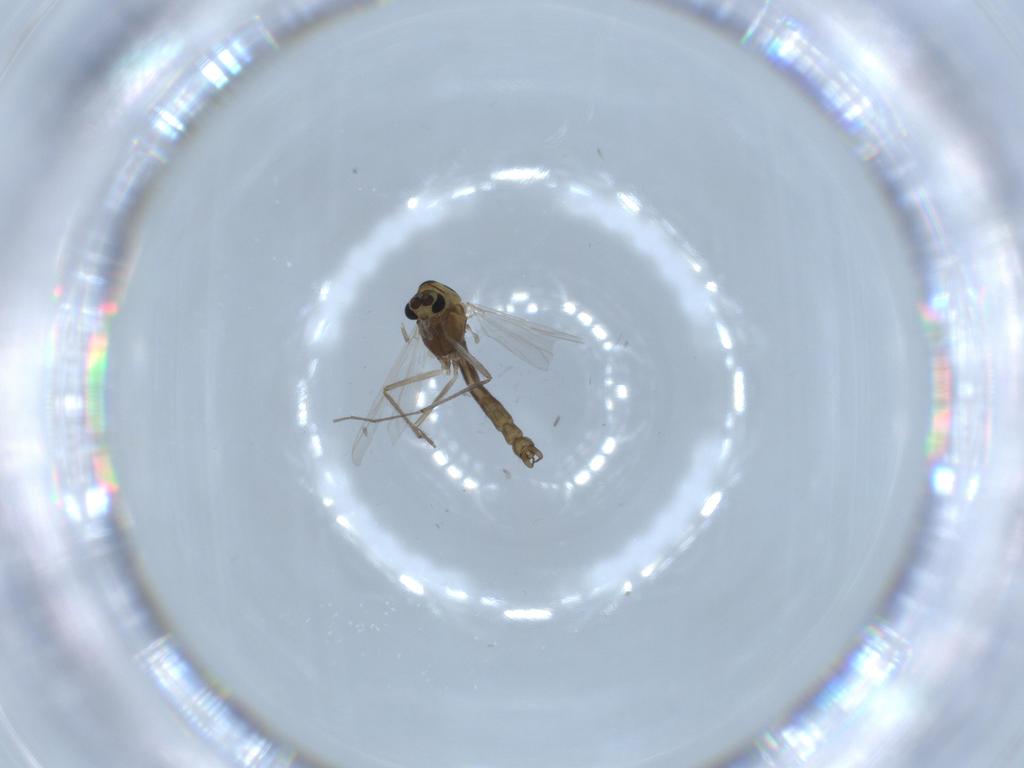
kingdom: Animalia
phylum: Arthropoda
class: Insecta
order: Diptera
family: Chironomidae
